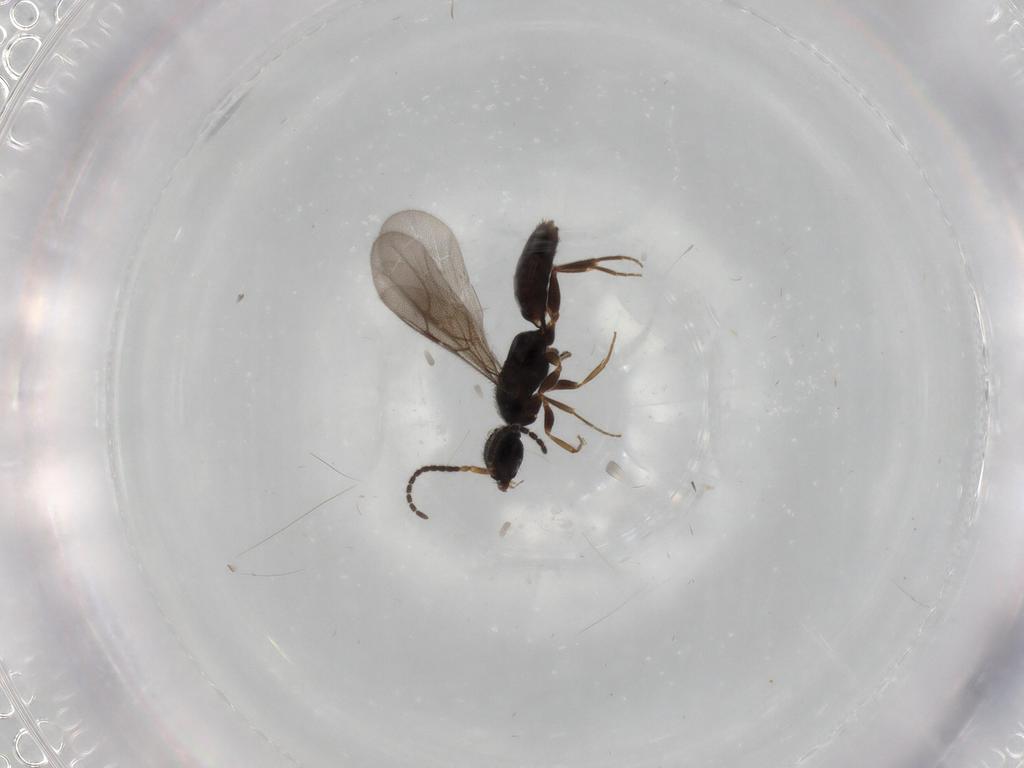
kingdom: Animalia
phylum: Arthropoda
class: Insecta
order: Hymenoptera
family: Bethylidae
